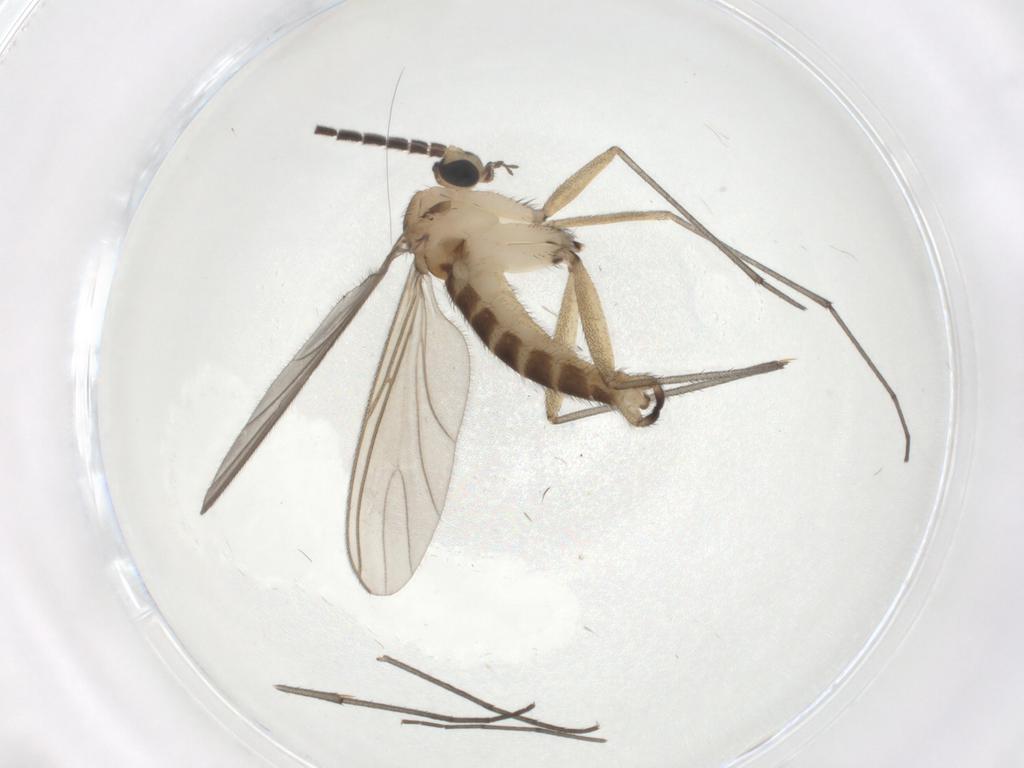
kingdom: Animalia
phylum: Arthropoda
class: Insecta
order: Diptera
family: Sciaridae
